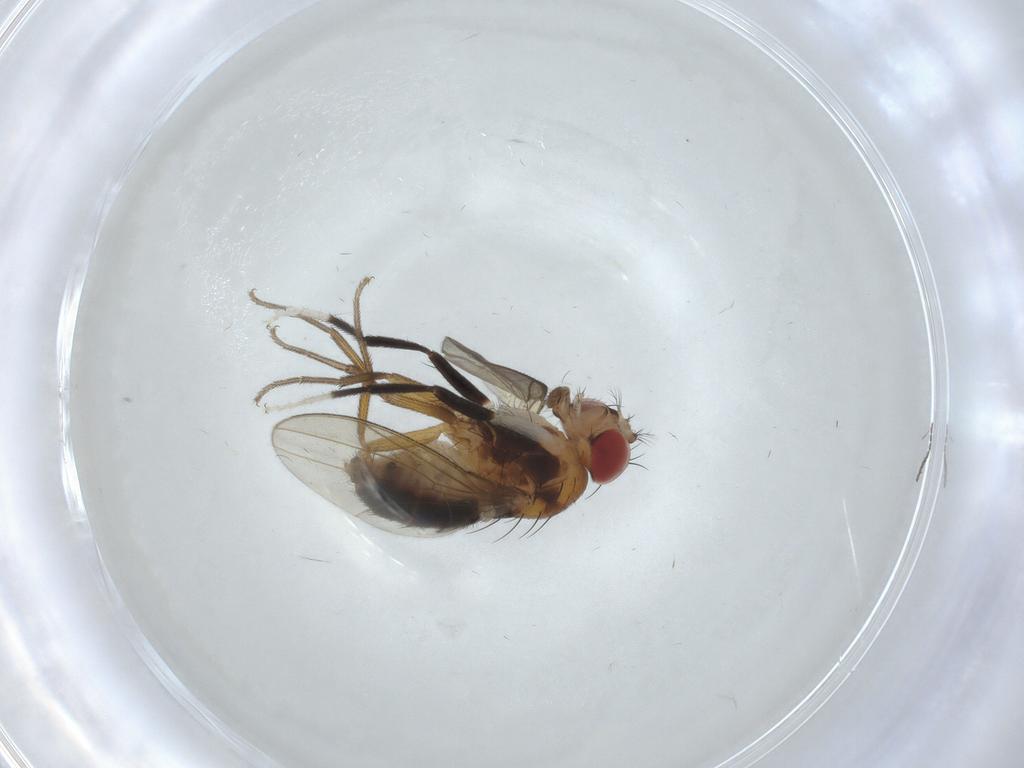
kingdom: Animalia
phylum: Arthropoda
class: Insecta
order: Diptera
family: Drosophilidae
